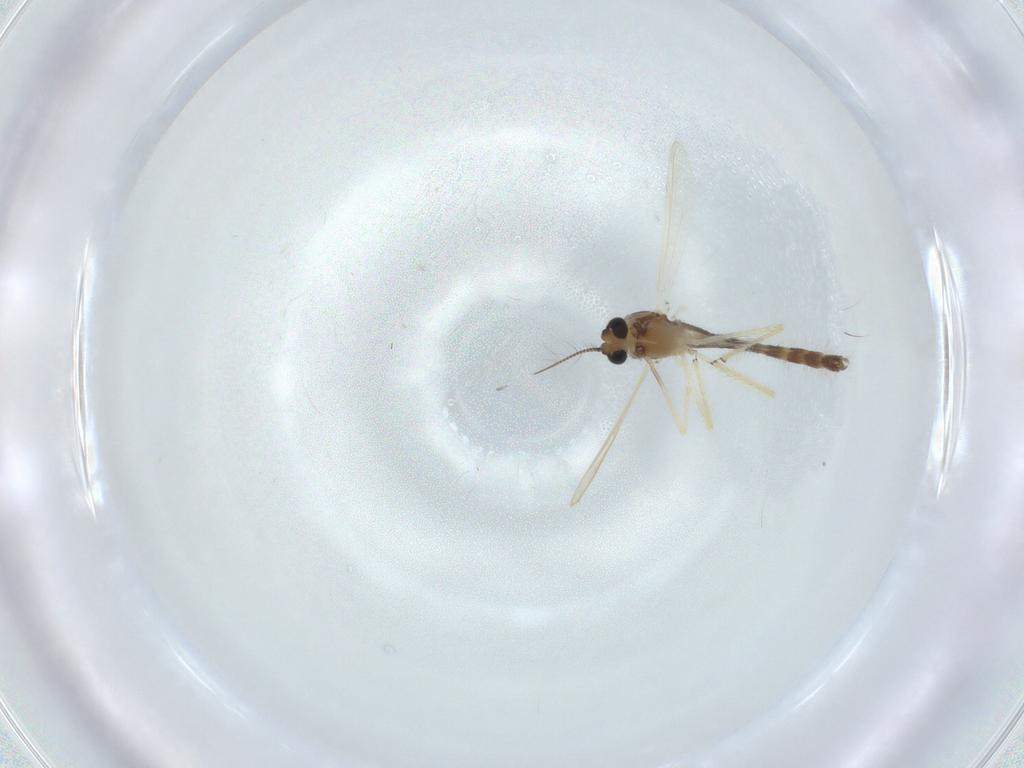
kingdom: Animalia
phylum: Arthropoda
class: Insecta
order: Diptera
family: Chironomidae
